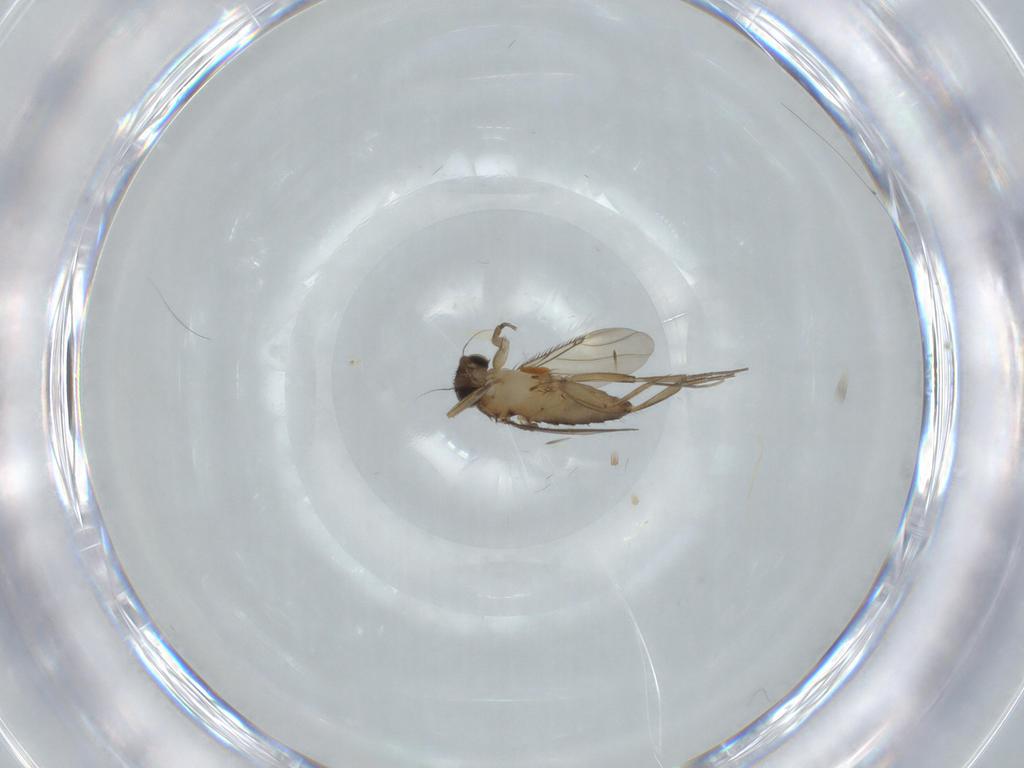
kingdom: Animalia
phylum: Arthropoda
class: Insecta
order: Diptera
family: Phoridae
